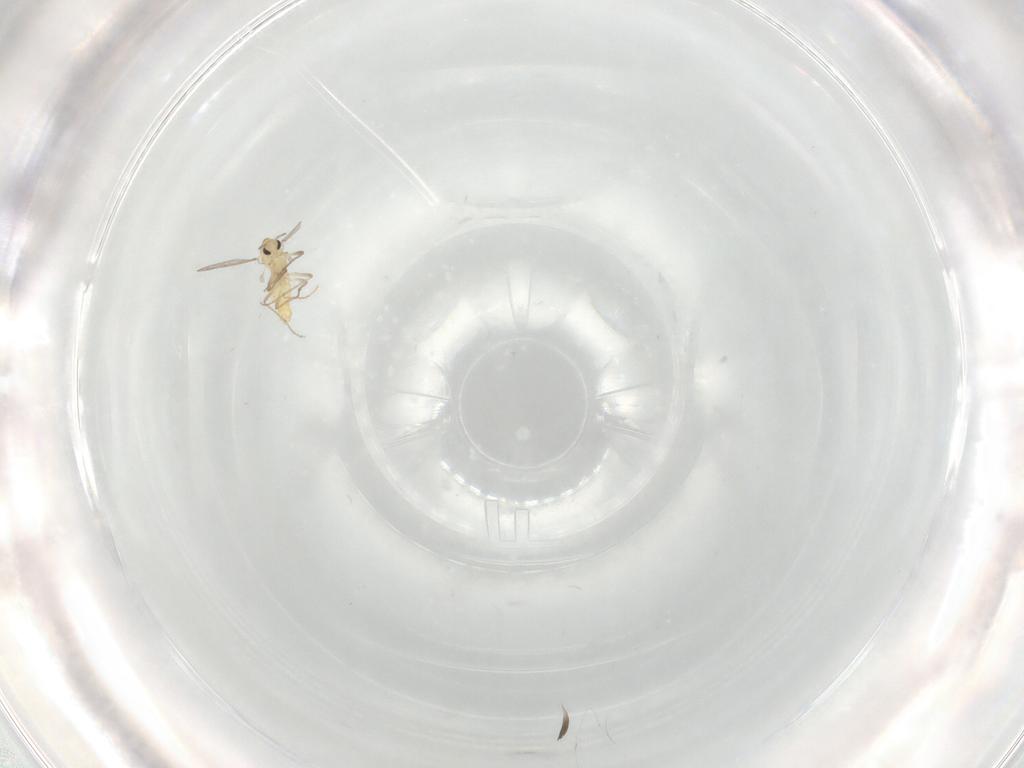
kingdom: Animalia
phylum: Arthropoda
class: Insecta
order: Diptera
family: Chironomidae
